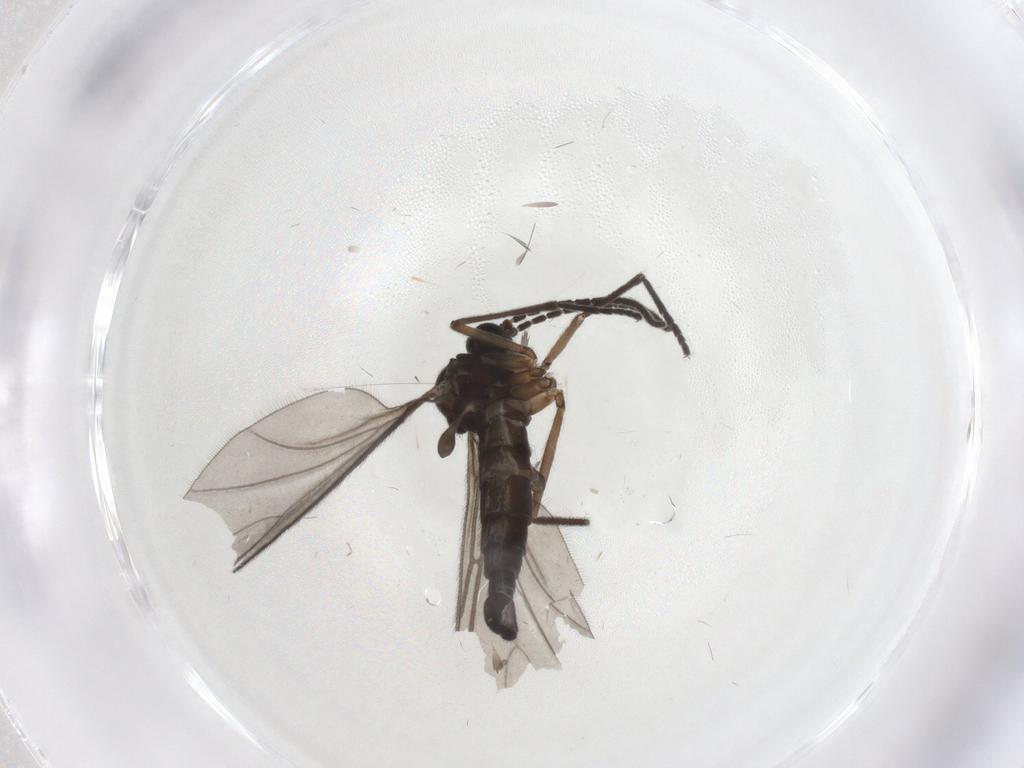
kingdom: Animalia
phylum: Arthropoda
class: Insecta
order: Diptera
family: Sciaridae
